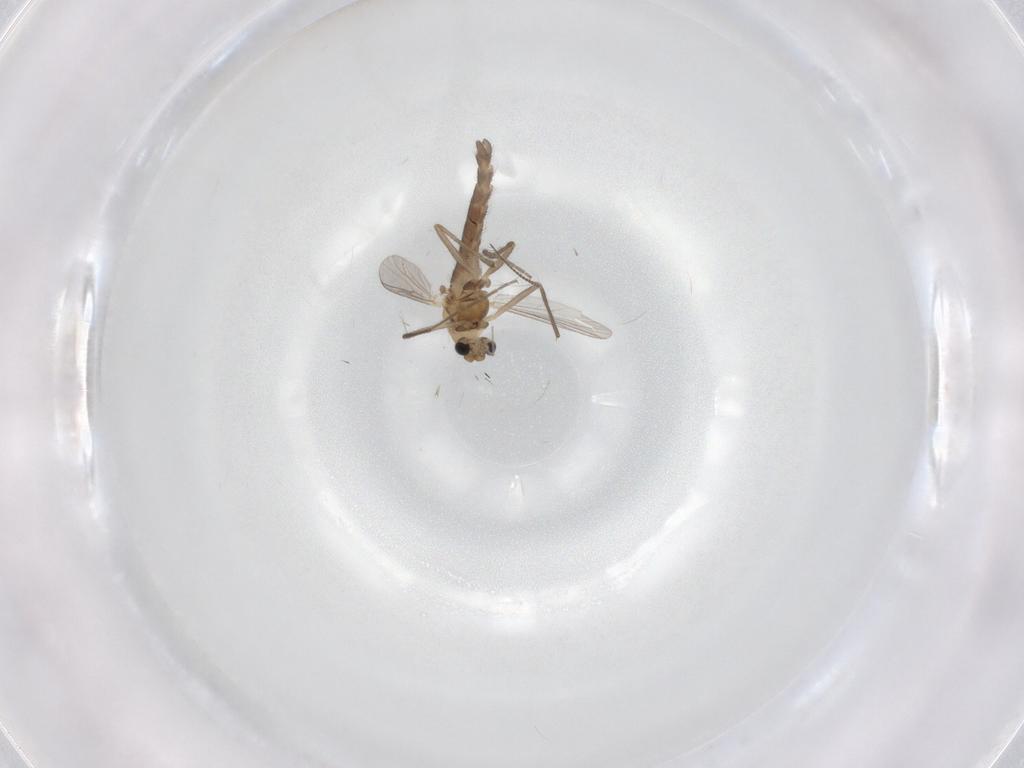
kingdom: Animalia
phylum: Arthropoda
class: Insecta
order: Diptera
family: Chironomidae
